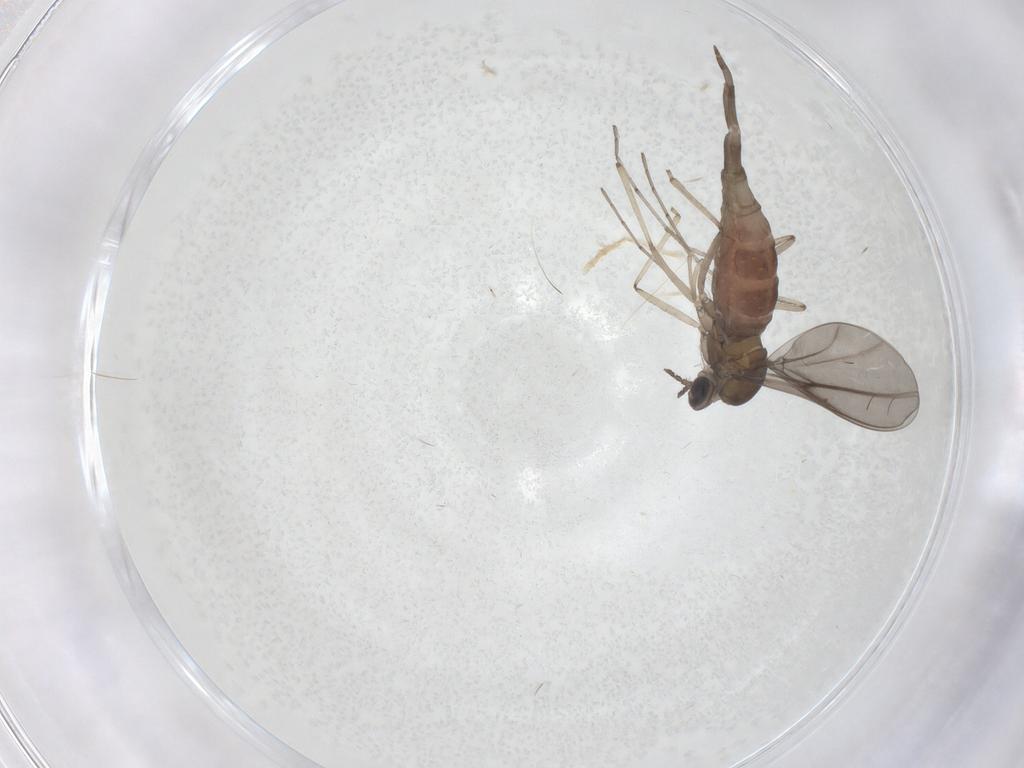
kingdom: Animalia
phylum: Arthropoda
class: Insecta
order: Diptera
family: Cecidomyiidae
